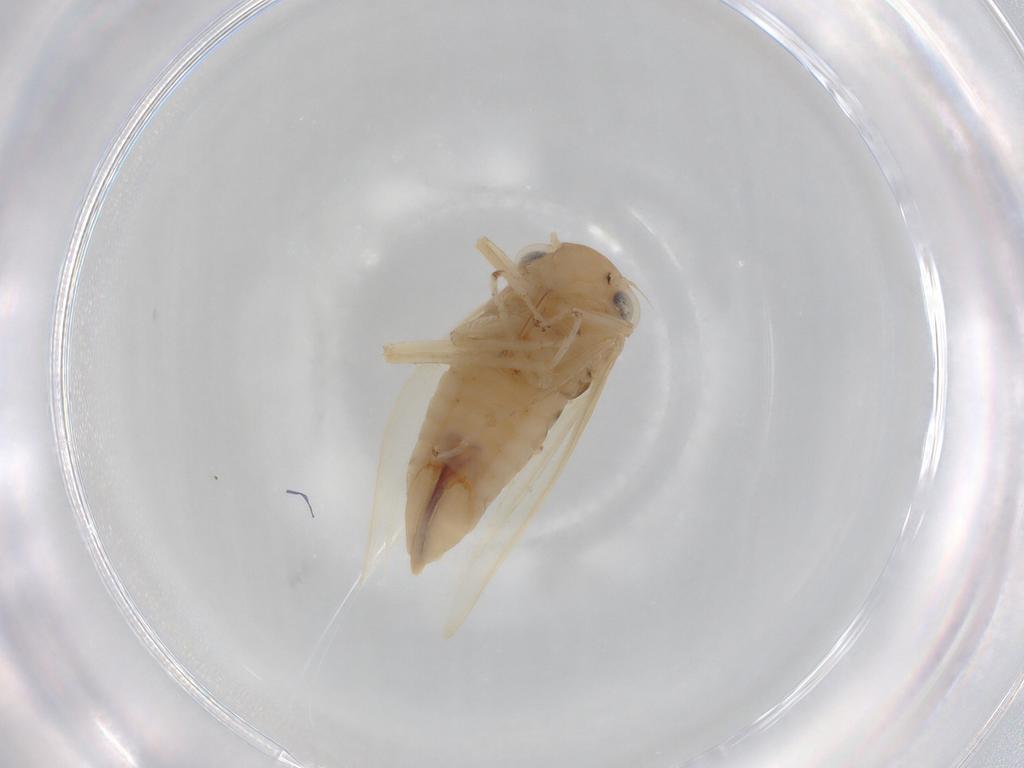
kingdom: Animalia
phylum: Arthropoda
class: Insecta
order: Hemiptera
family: Cicadellidae
